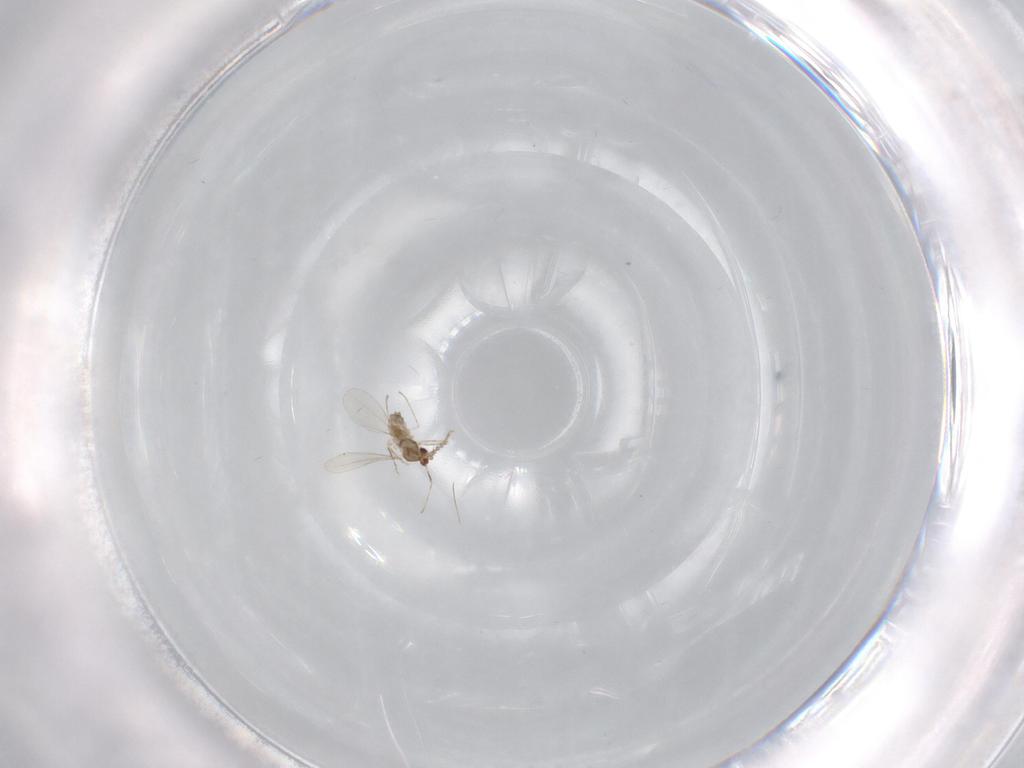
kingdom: Animalia
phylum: Arthropoda
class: Insecta
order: Diptera
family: Cecidomyiidae
